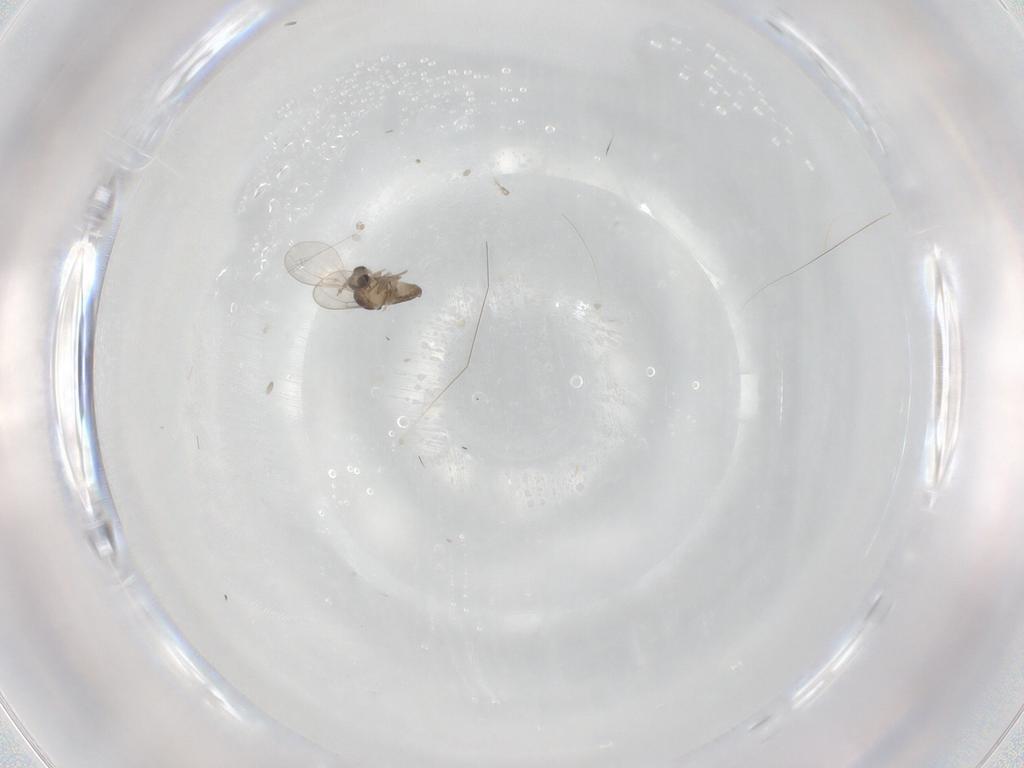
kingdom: Animalia
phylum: Arthropoda
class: Insecta
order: Diptera
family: Cecidomyiidae
